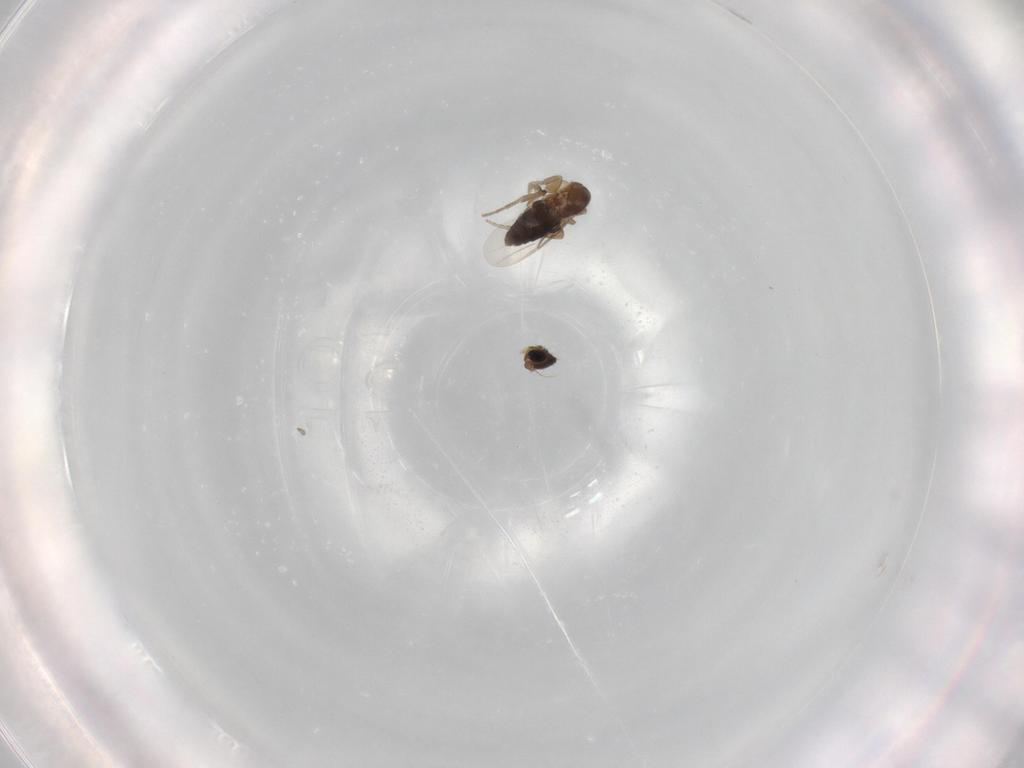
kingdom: Animalia
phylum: Arthropoda
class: Insecta
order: Diptera
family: Phoridae
